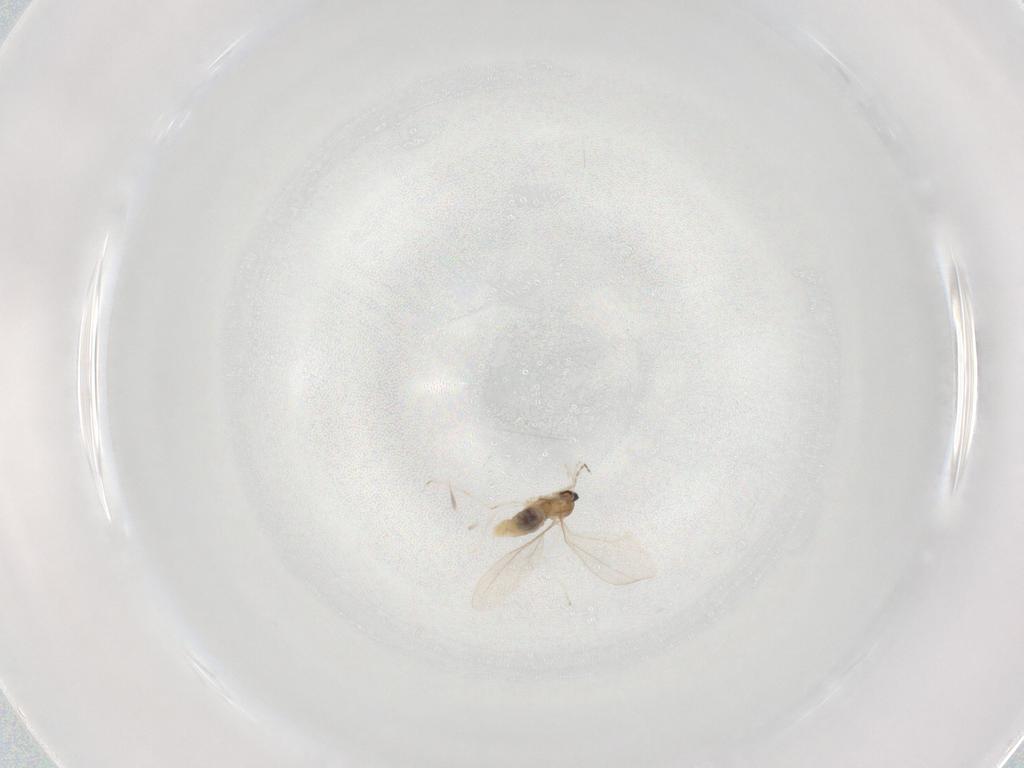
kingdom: Animalia
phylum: Arthropoda
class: Insecta
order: Diptera
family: Cecidomyiidae
